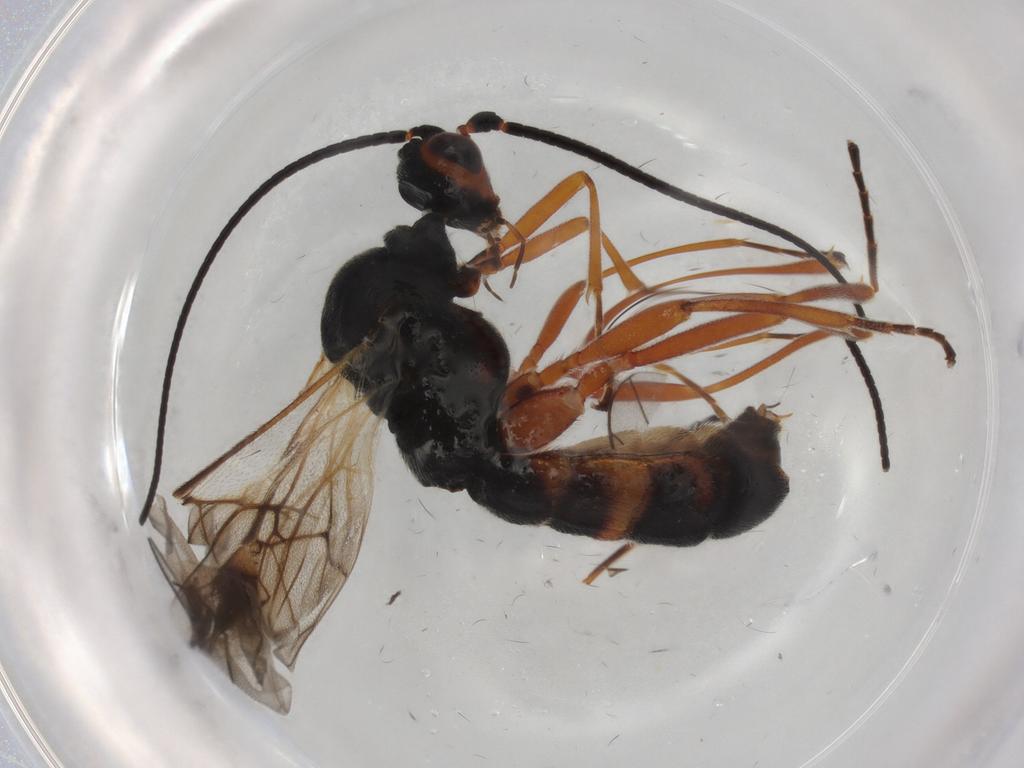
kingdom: Animalia
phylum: Arthropoda
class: Insecta
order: Hymenoptera
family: Braconidae
